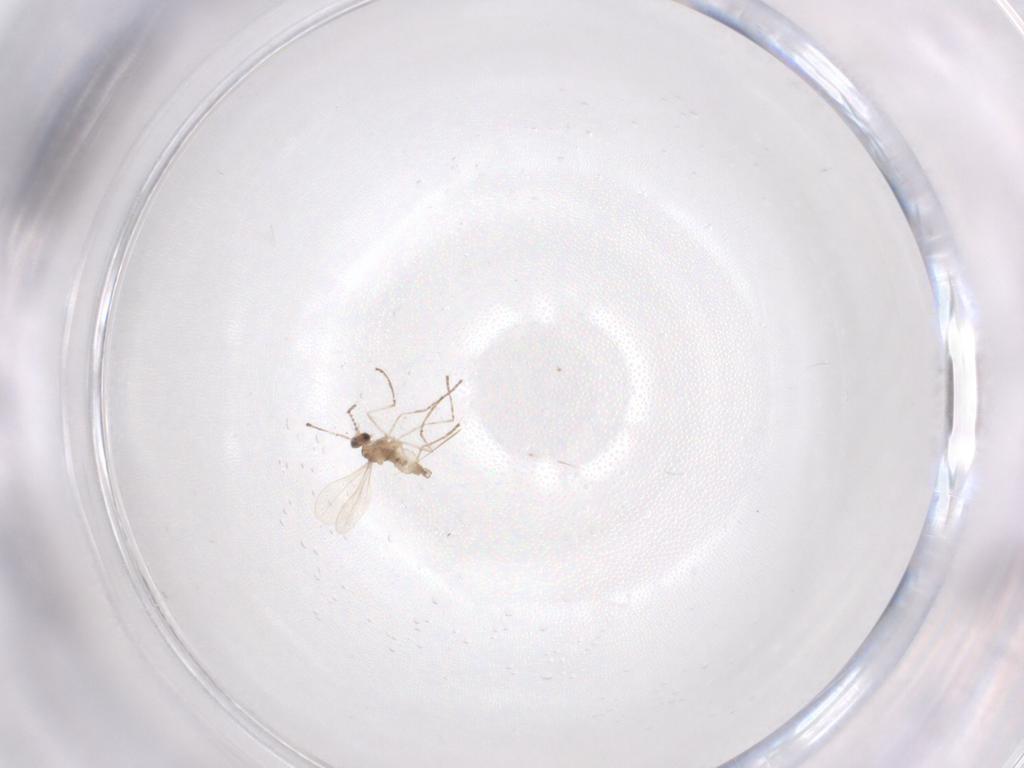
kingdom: Animalia
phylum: Arthropoda
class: Insecta
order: Diptera
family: Cecidomyiidae
